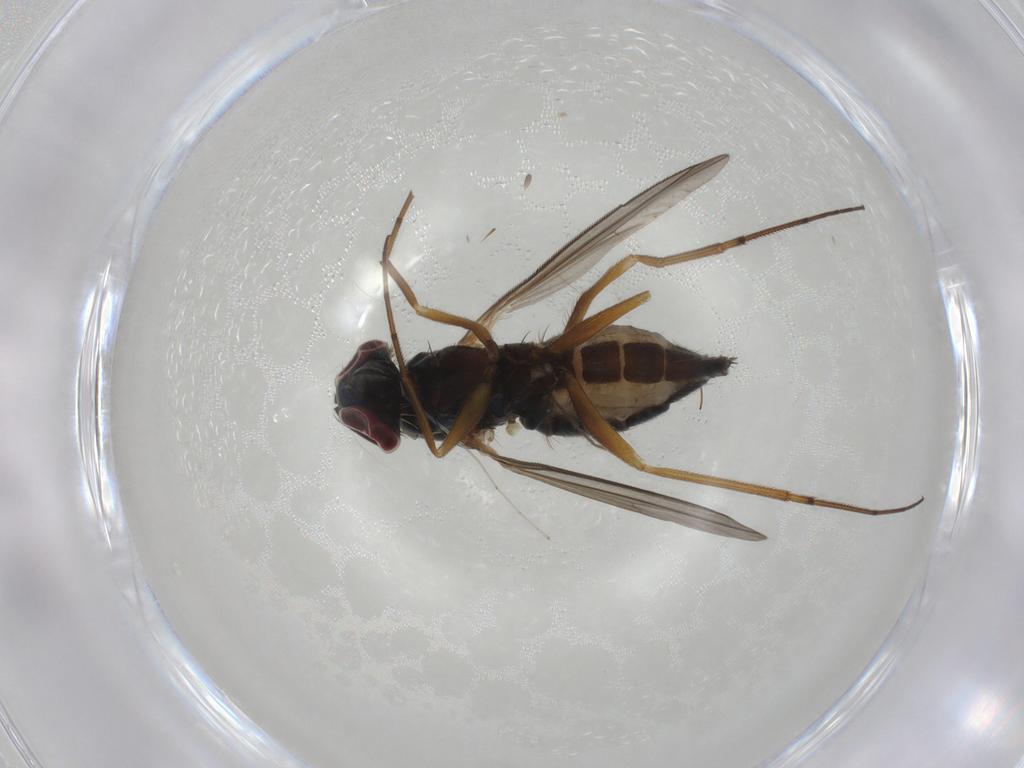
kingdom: Animalia
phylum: Arthropoda
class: Insecta
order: Diptera
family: Dolichopodidae
